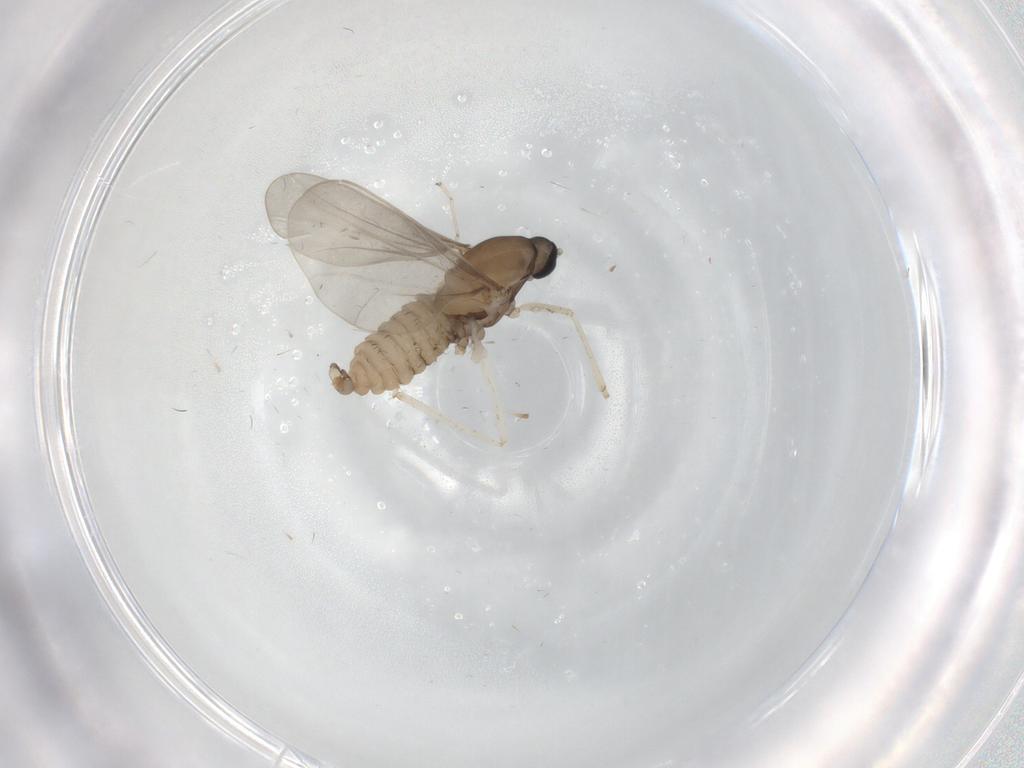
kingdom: Animalia
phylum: Arthropoda
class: Insecta
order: Diptera
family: Cecidomyiidae
